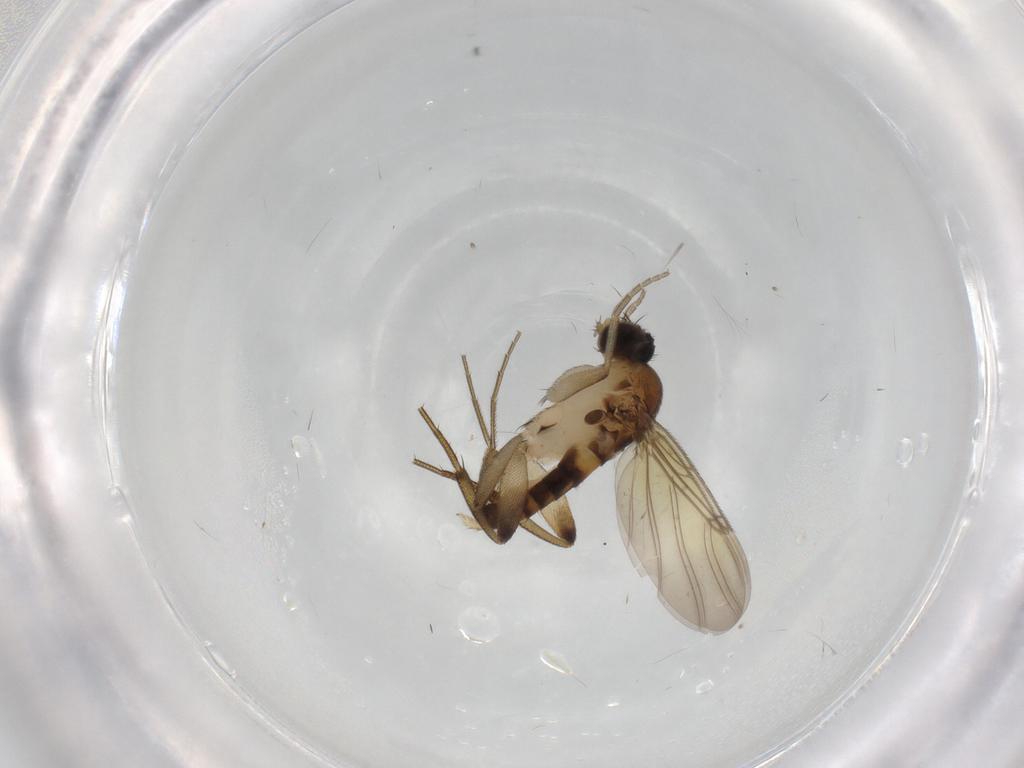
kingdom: Animalia
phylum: Arthropoda
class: Insecta
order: Diptera
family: Phoridae
